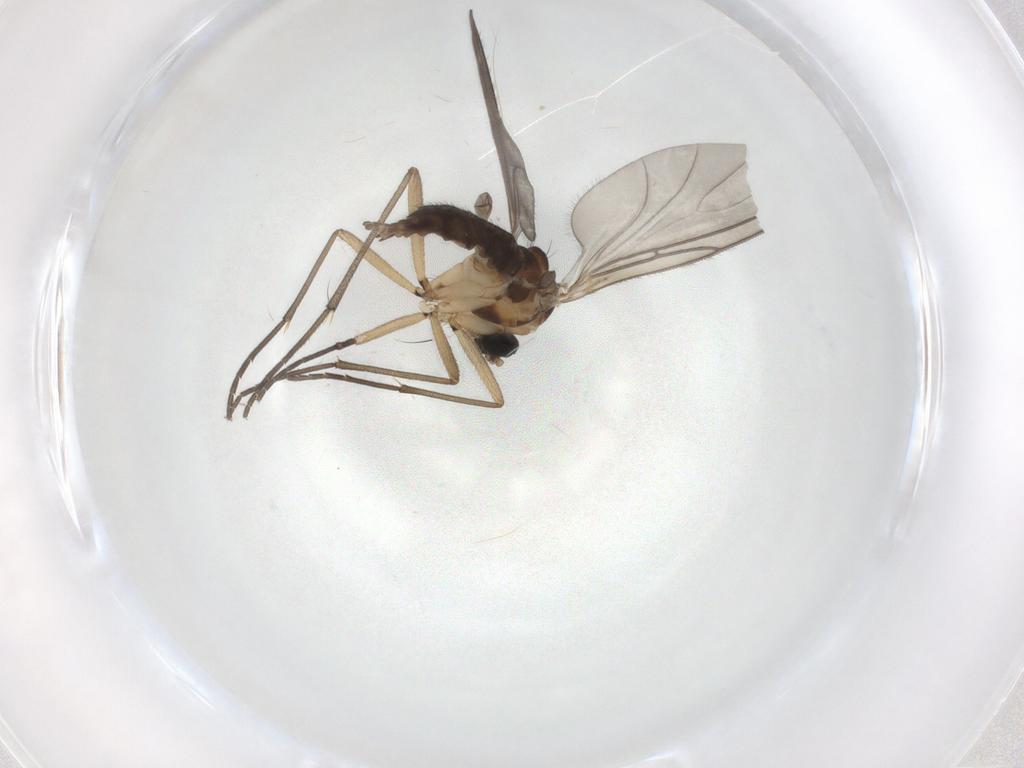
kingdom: Animalia
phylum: Arthropoda
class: Insecta
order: Diptera
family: Sciaridae
